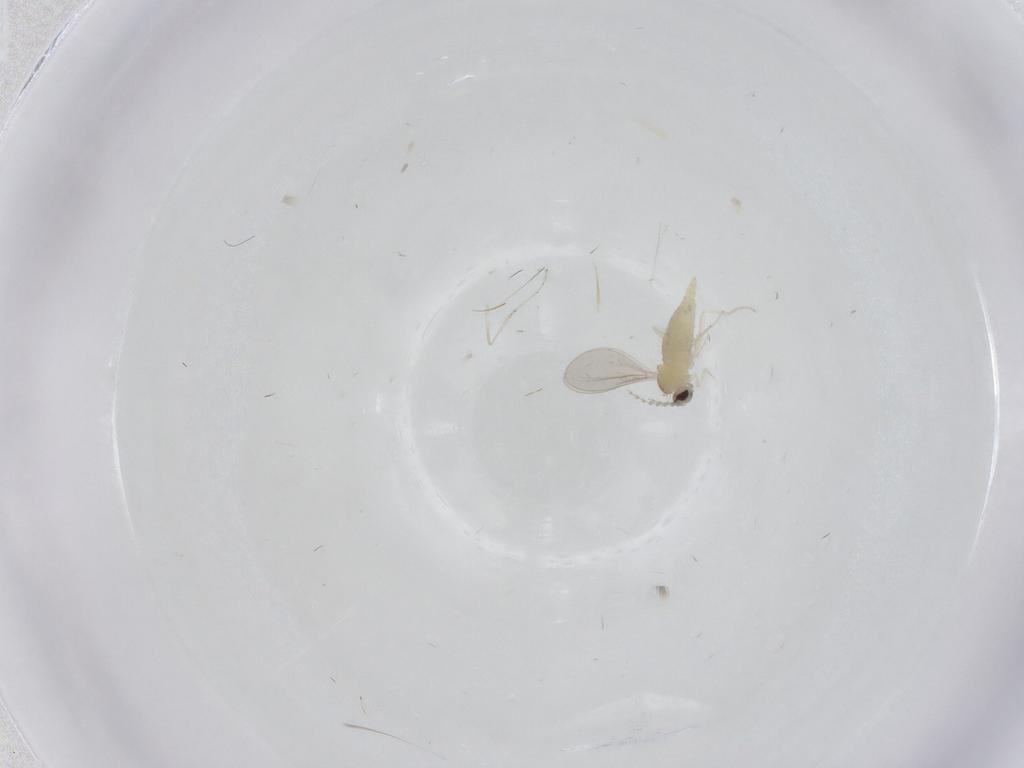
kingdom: Animalia
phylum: Arthropoda
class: Insecta
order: Diptera
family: Cecidomyiidae
